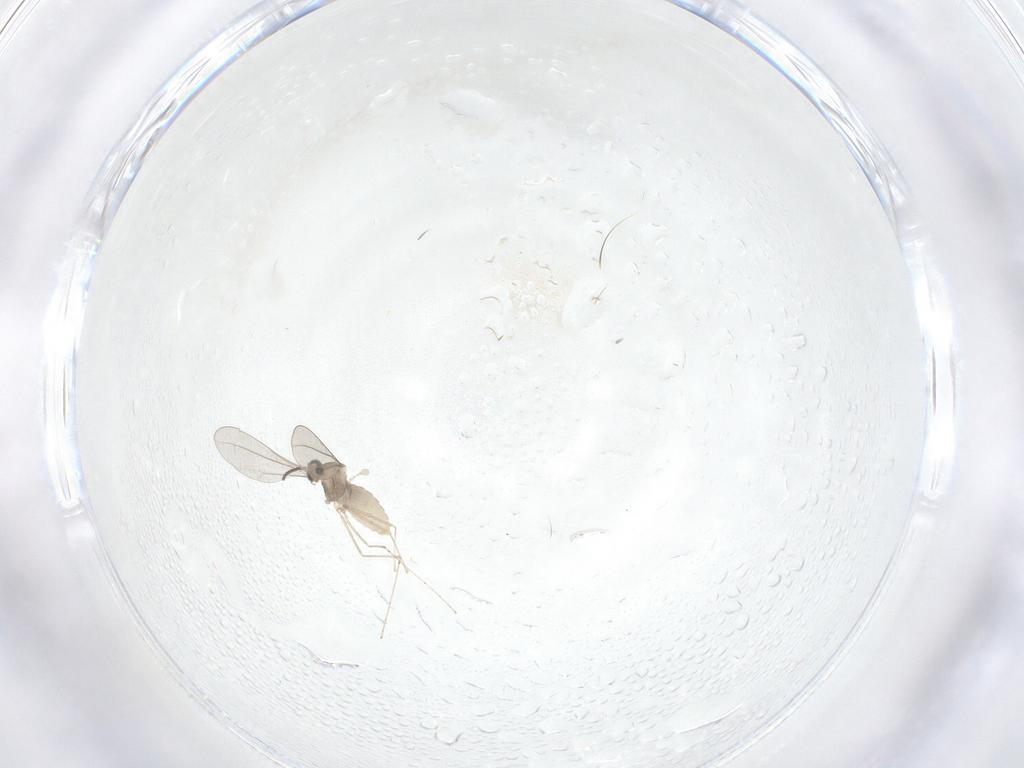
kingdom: Animalia
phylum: Arthropoda
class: Insecta
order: Diptera
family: Cecidomyiidae
